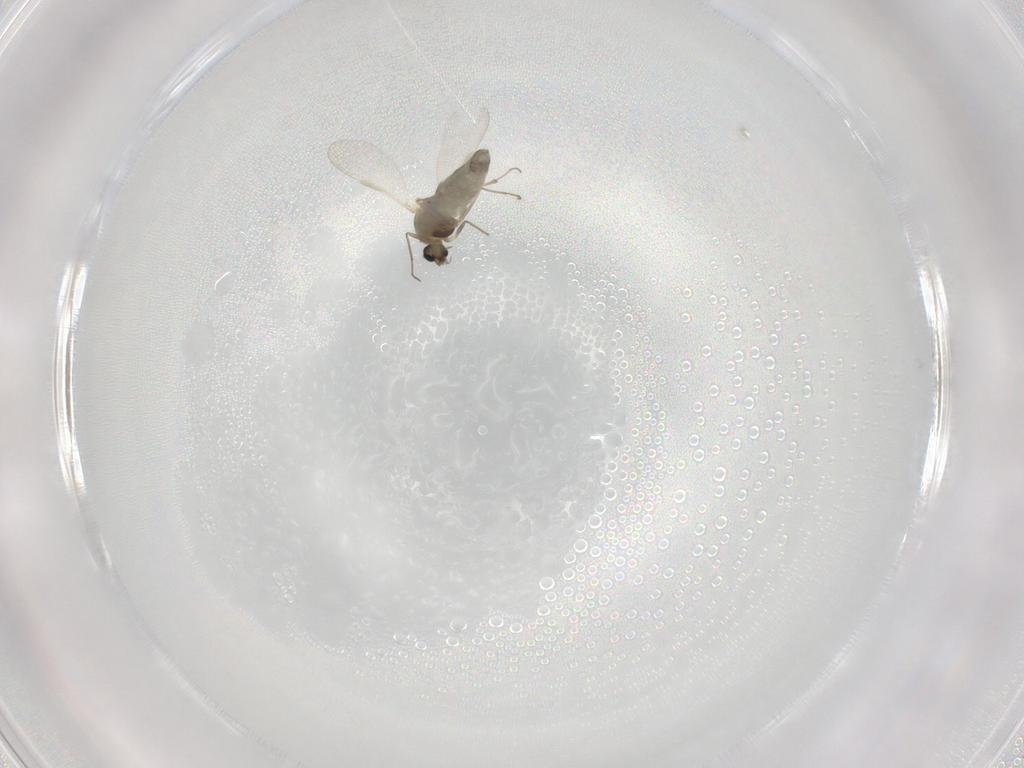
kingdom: Animalia
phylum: Arthropoda
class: Insecta
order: Diptera
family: Chironomidae
